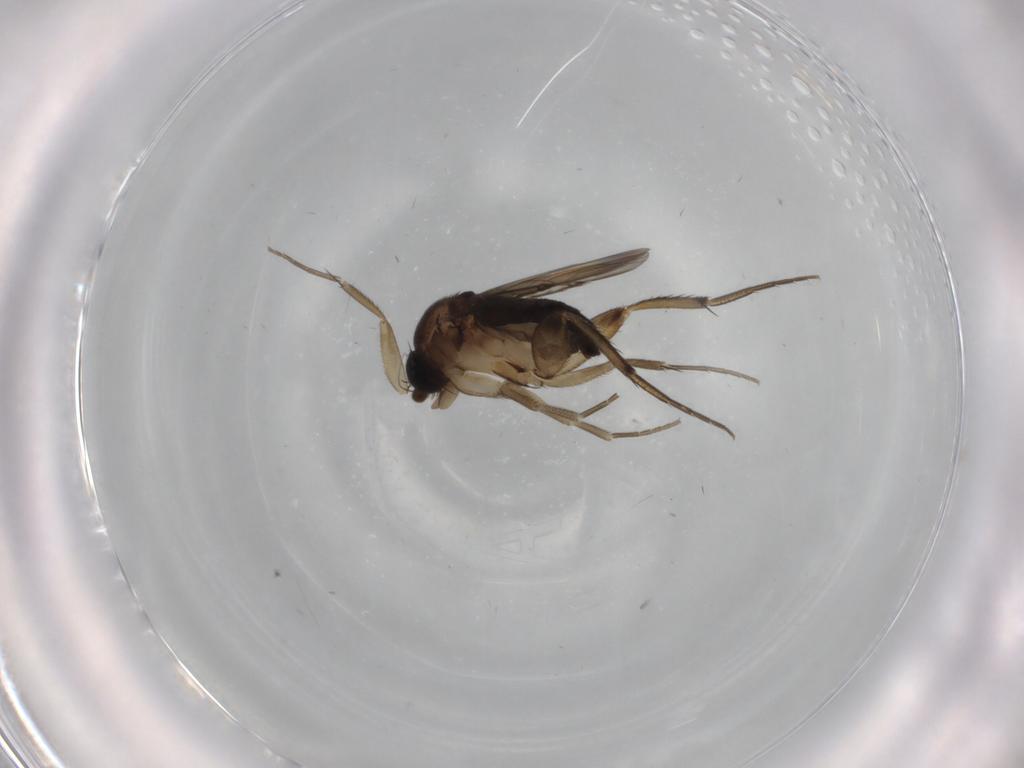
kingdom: Animalia
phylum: Arthropoda
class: Insecta
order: Diptera
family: Phoridae
